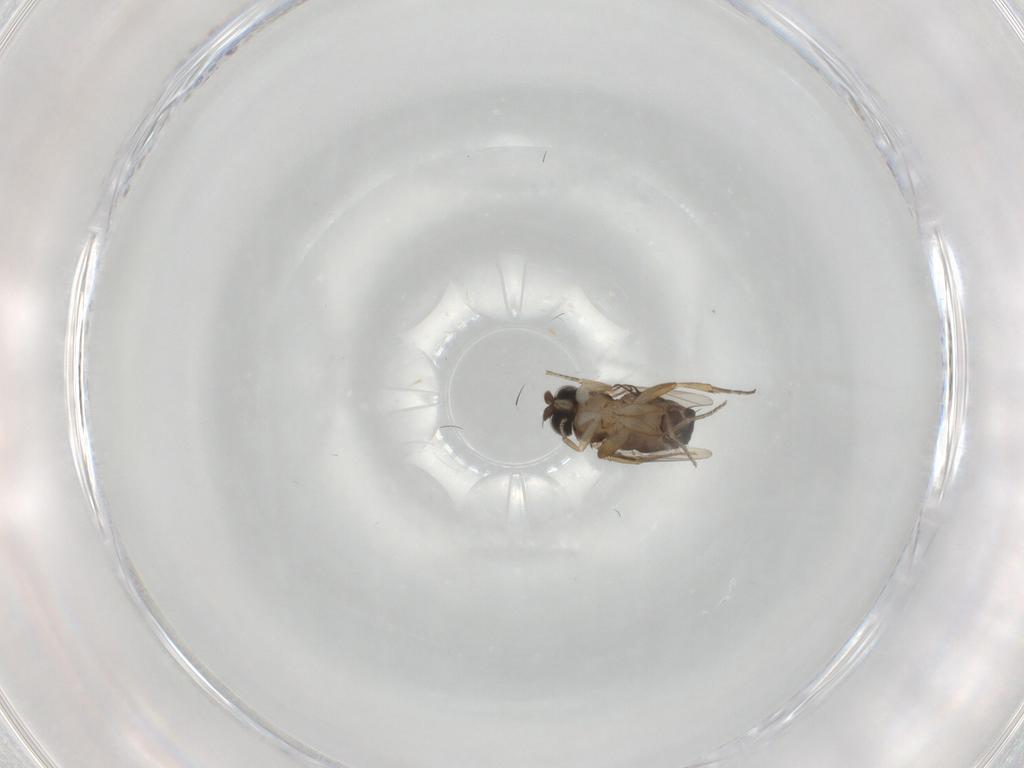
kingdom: Animalia
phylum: Arthropoda
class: Insecta
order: Diptera
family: Phoridae
